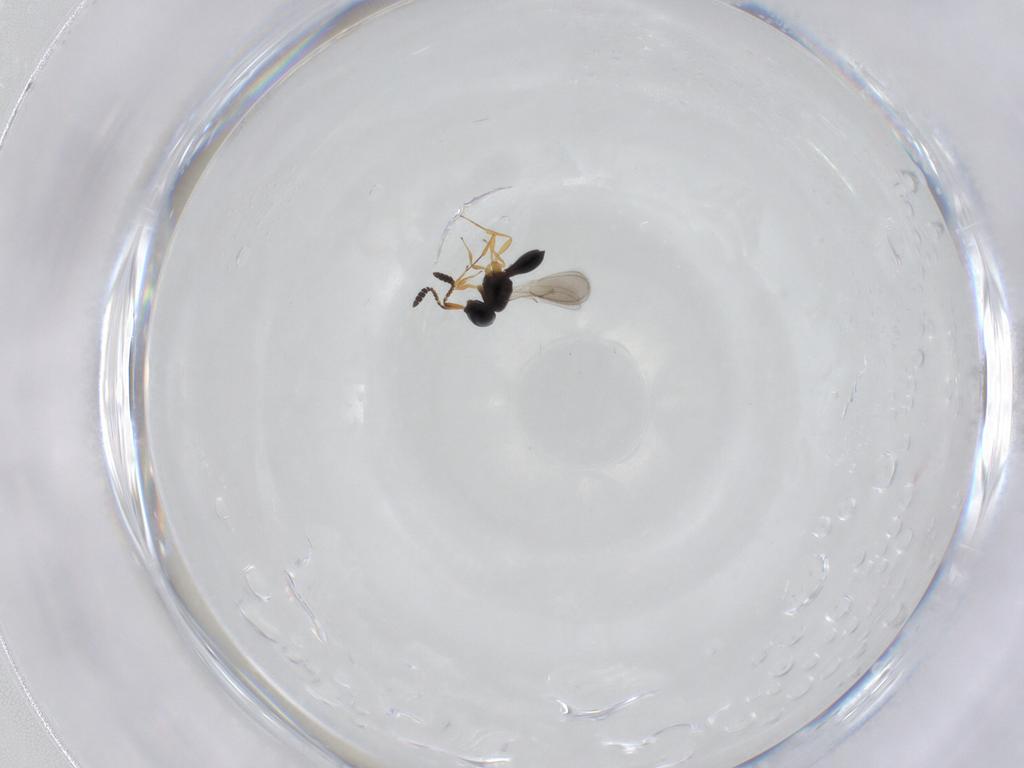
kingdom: Animalia
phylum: Arthropoda
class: Insecta
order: Hymenoptera
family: Scelionidae
